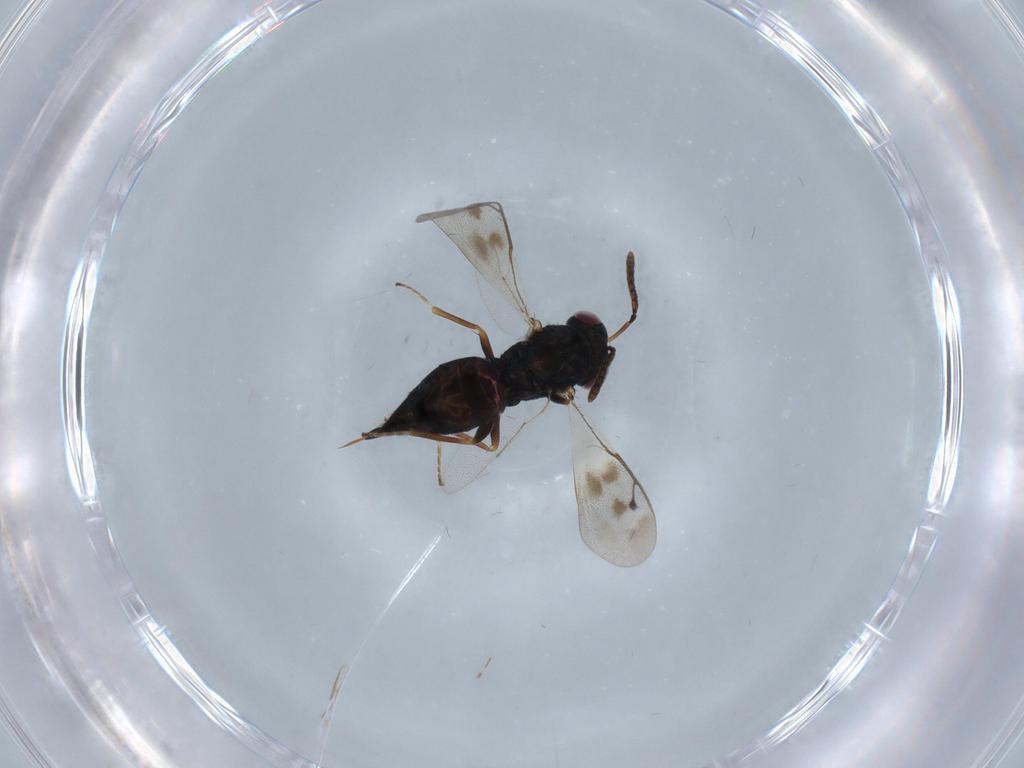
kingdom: Animalia
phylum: Arthropoda
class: Insecta
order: Hymenoptera
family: Pteromalidae
